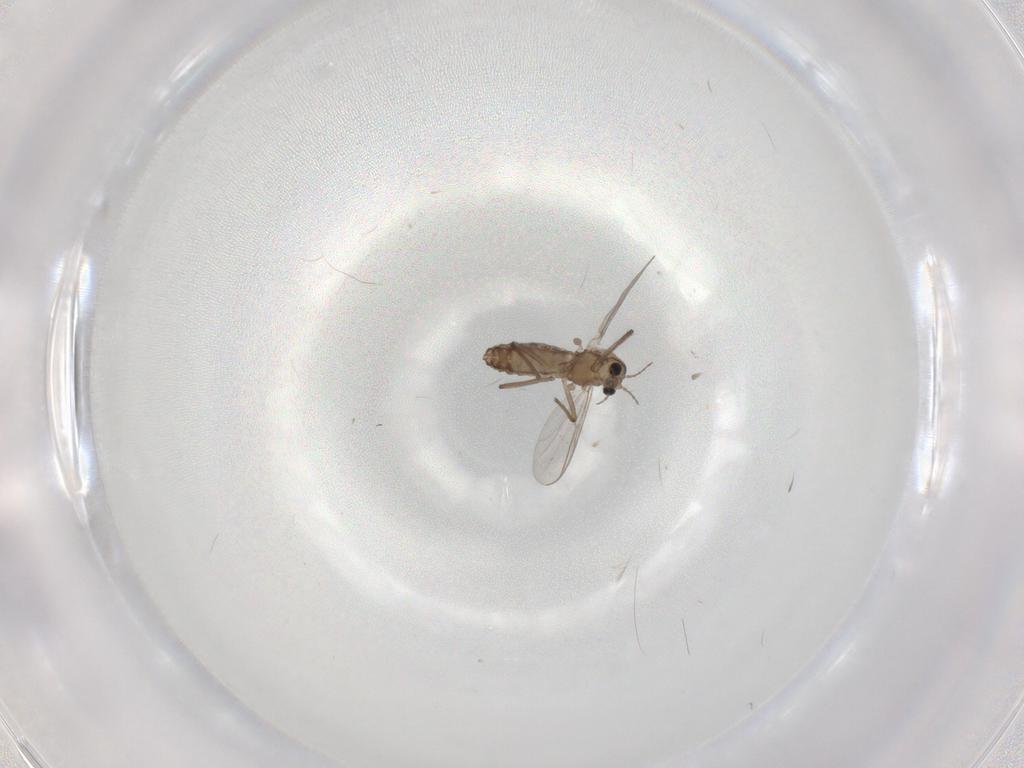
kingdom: Animalia
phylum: Arthropoda
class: Insecta
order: Diptera
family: Chironomidae
